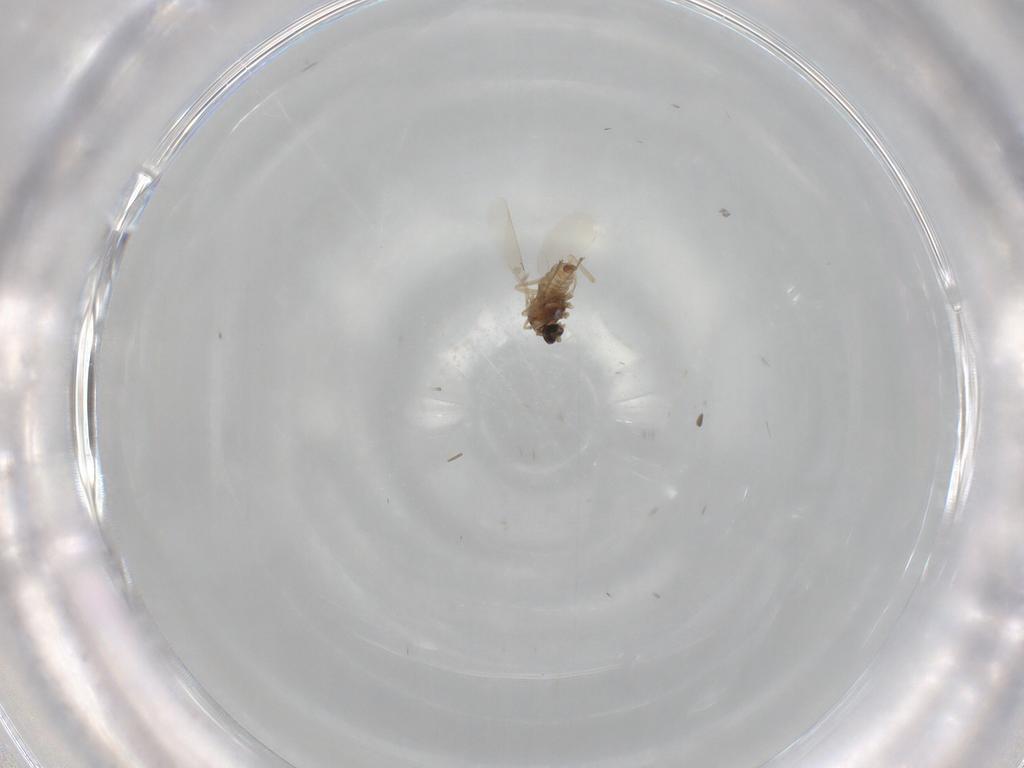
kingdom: Animalia
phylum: Arthropoda
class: Insecta
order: Diptera
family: Cecidomyiidae
